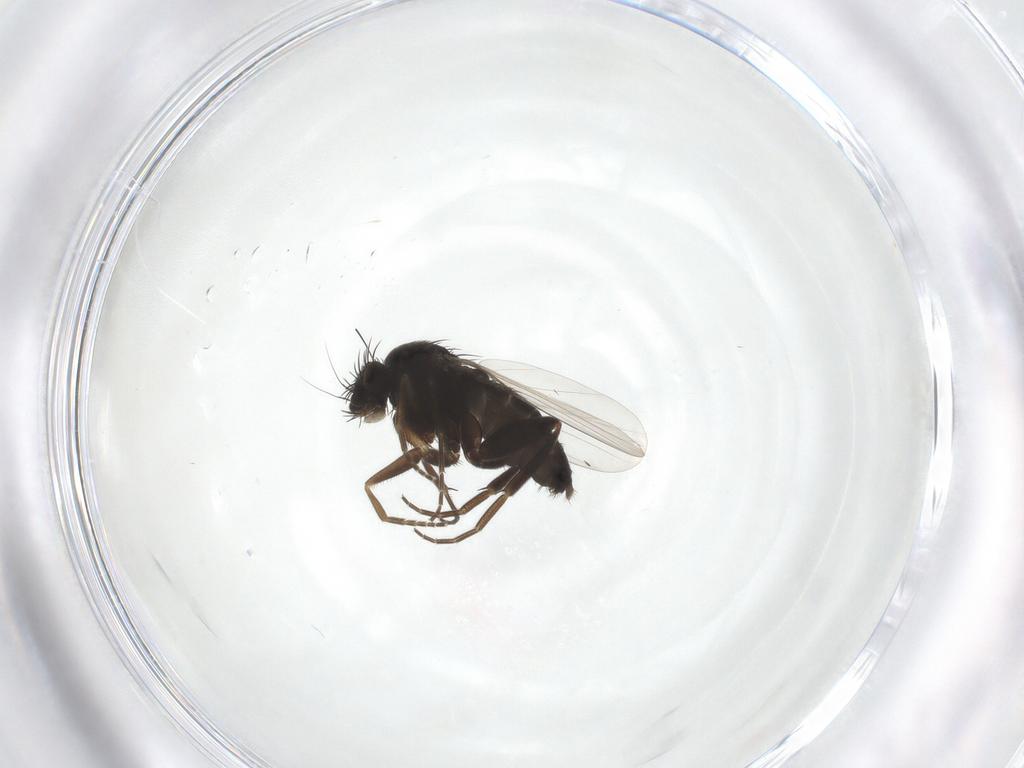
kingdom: Animalia
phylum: Arthropoda
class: Insecta
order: Diptera
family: Phoridae
